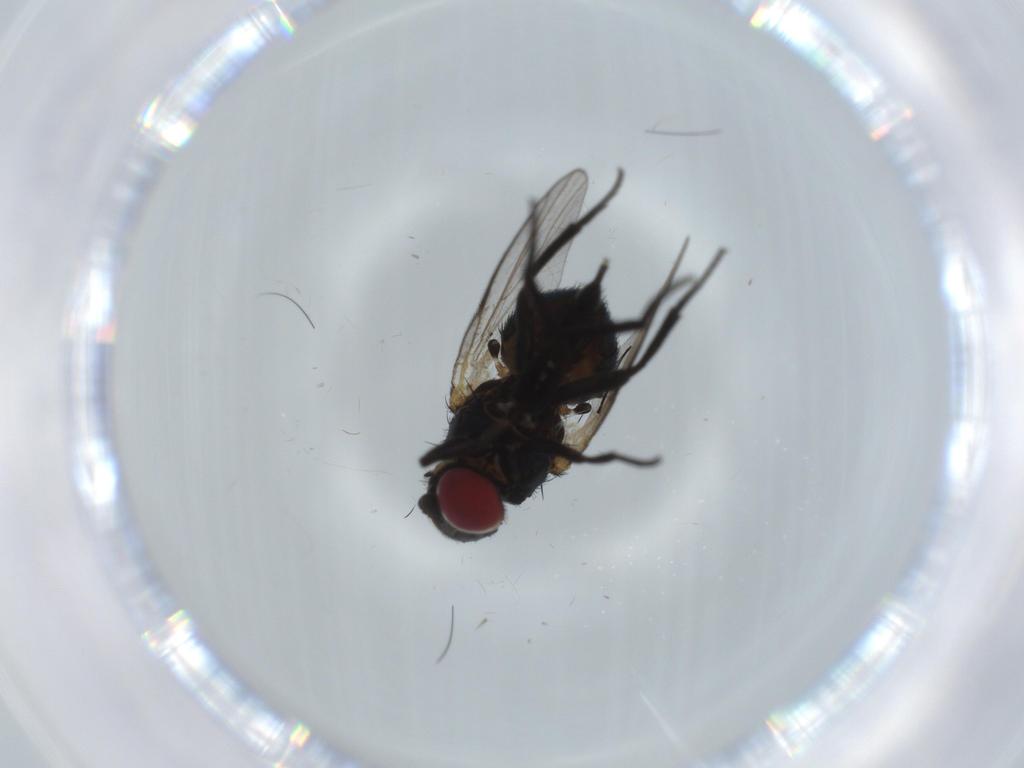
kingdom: Animalia
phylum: Arthropoda
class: Insecta
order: Diptera
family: Agromyzidae
